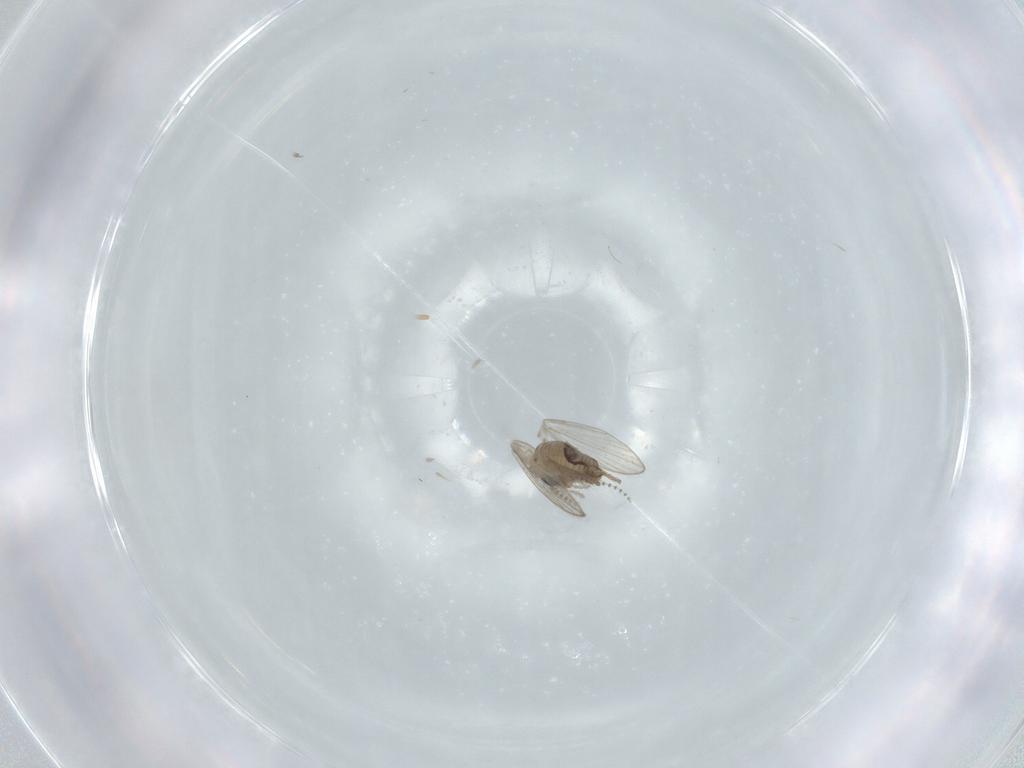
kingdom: Animalia
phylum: Arthropoda
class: Insecta
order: Diptera
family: Psychodidae
